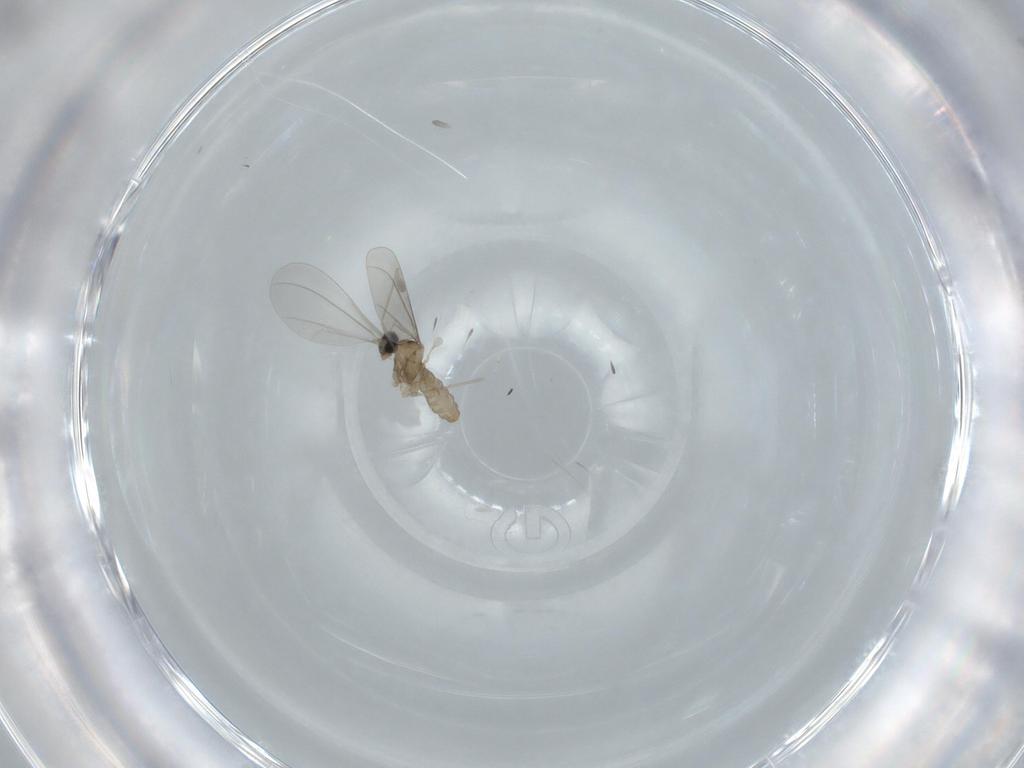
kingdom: Animalia
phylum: Arthropoda
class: Insecta
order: Diptera
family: Cecidomyiidae
